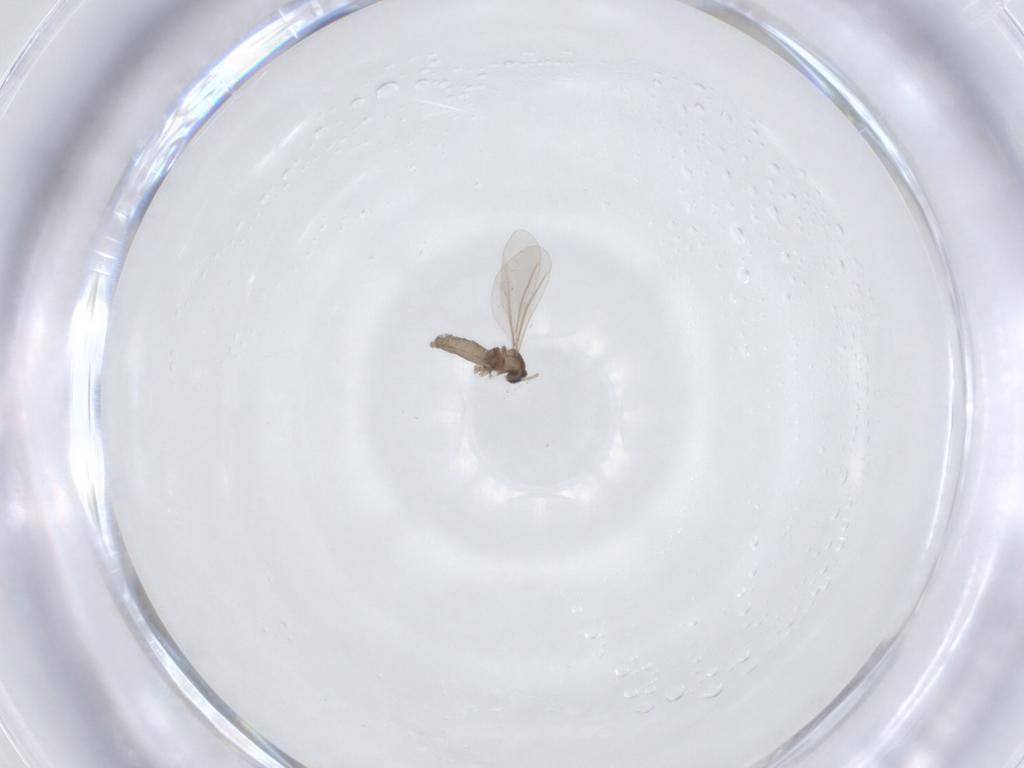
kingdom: Animalia
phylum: Arthropoda
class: Insecta
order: Diptera
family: Cecidomyiidae
